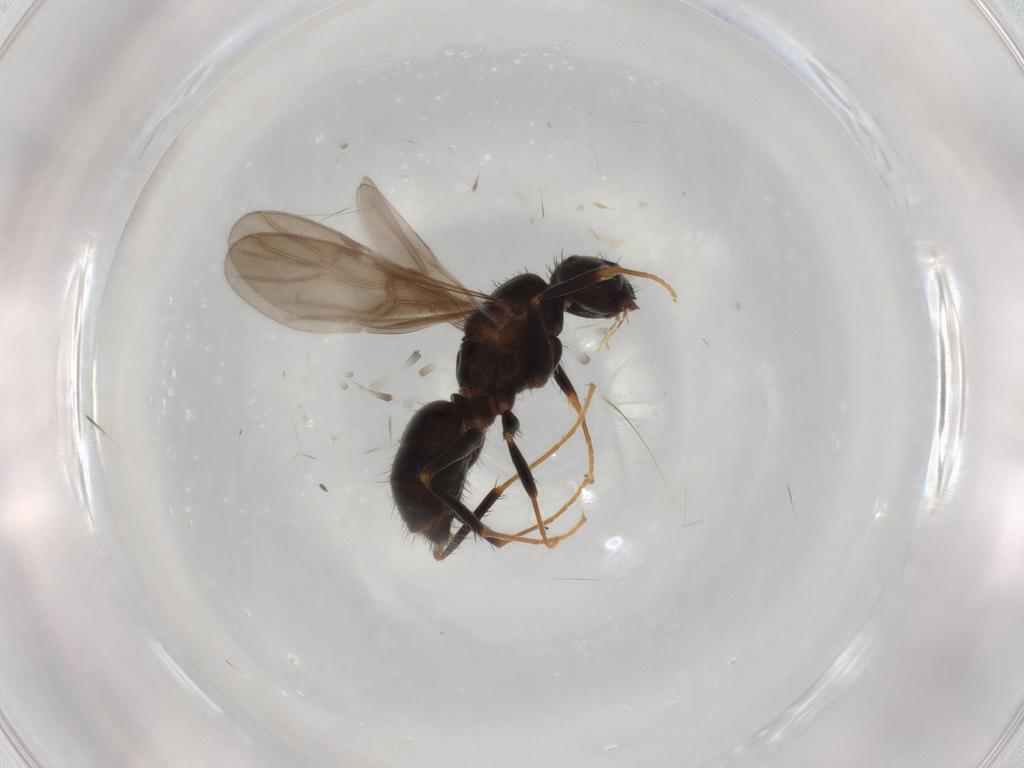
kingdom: Animalia
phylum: Arthropoda
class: Insecta
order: Hymenoptera
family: Formicidae
